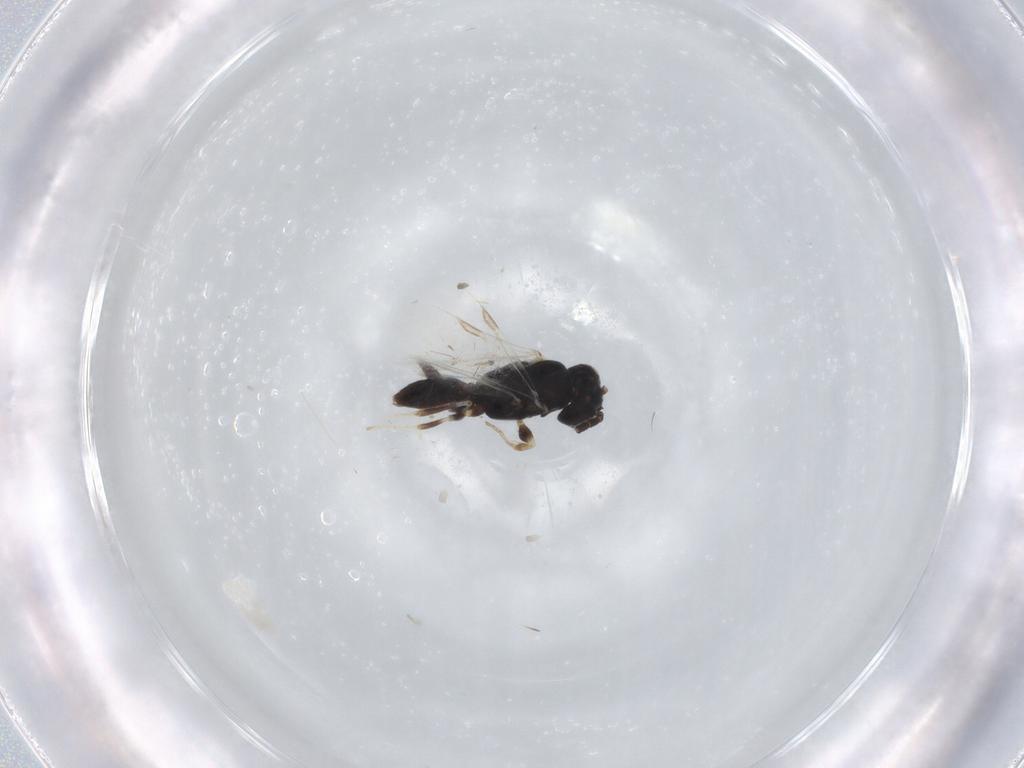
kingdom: Animalia
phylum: Arthropoda
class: Insecta
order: Hymenoptera
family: Dryinidae
